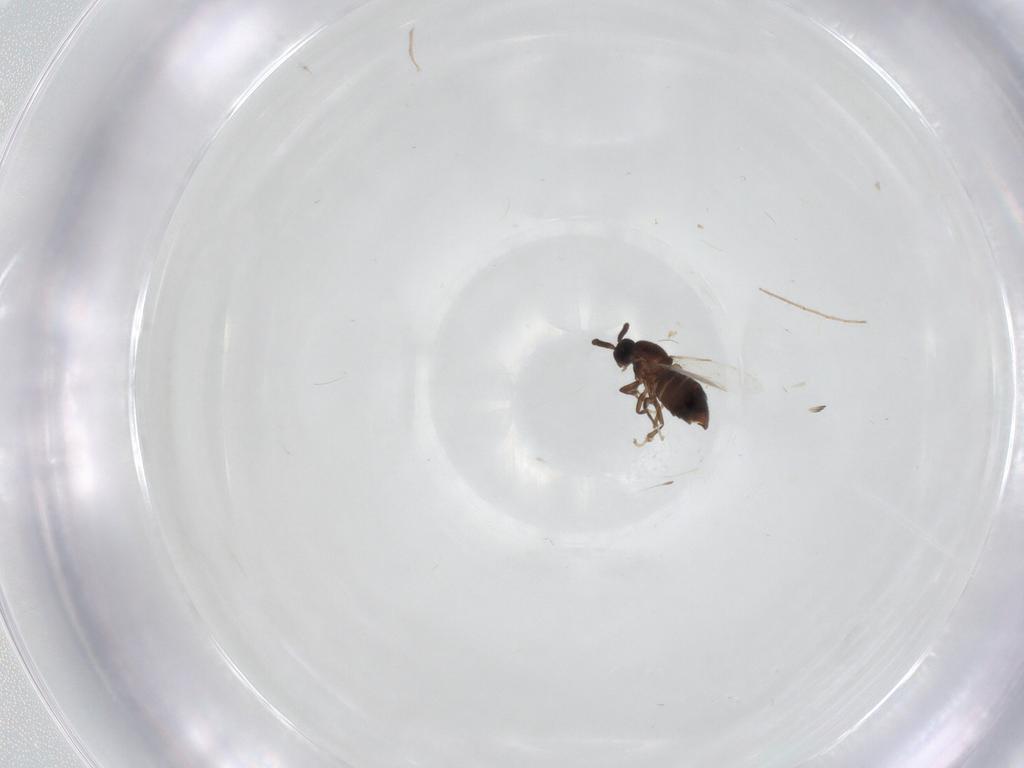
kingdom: Animalia
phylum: Arthropoda
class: Insecta
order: Diptera
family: Scatopsidae
